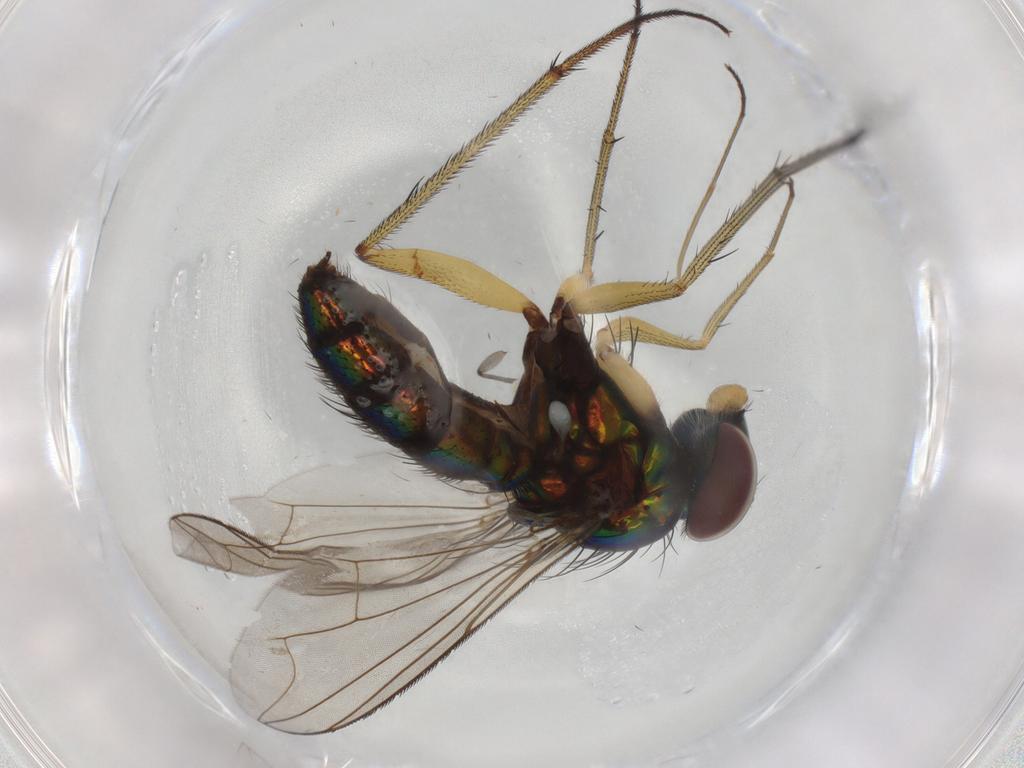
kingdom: Animalia
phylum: Arthropoda
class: Insecta
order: Diptera
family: Dolichopodidae
